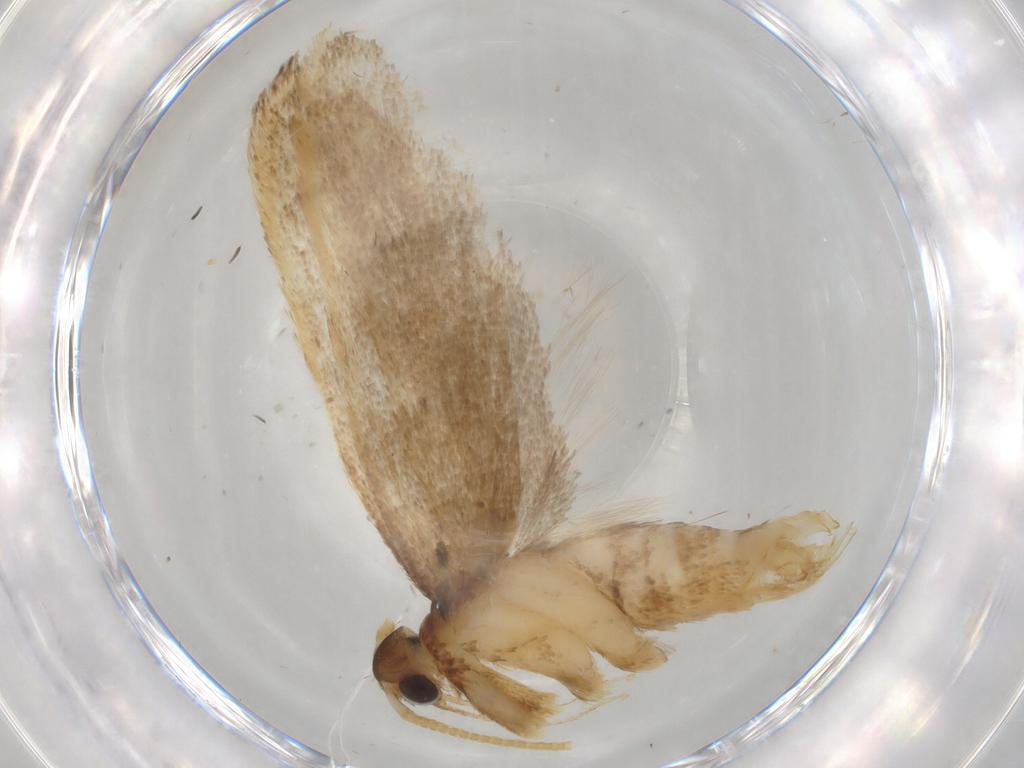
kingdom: Animalia
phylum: Arthropoda
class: Insecta
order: Lepidoptera
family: Lecithoceridae
